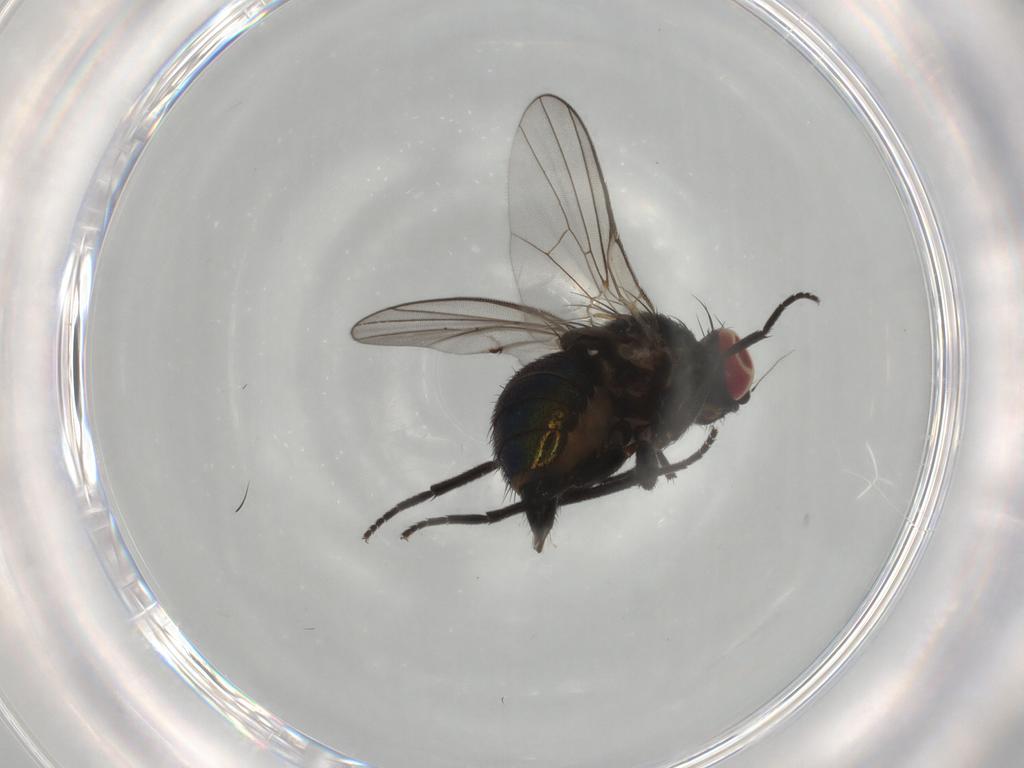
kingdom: Animalia
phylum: Arthropoda
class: Insecta
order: Diptera
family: Agromyzidae
